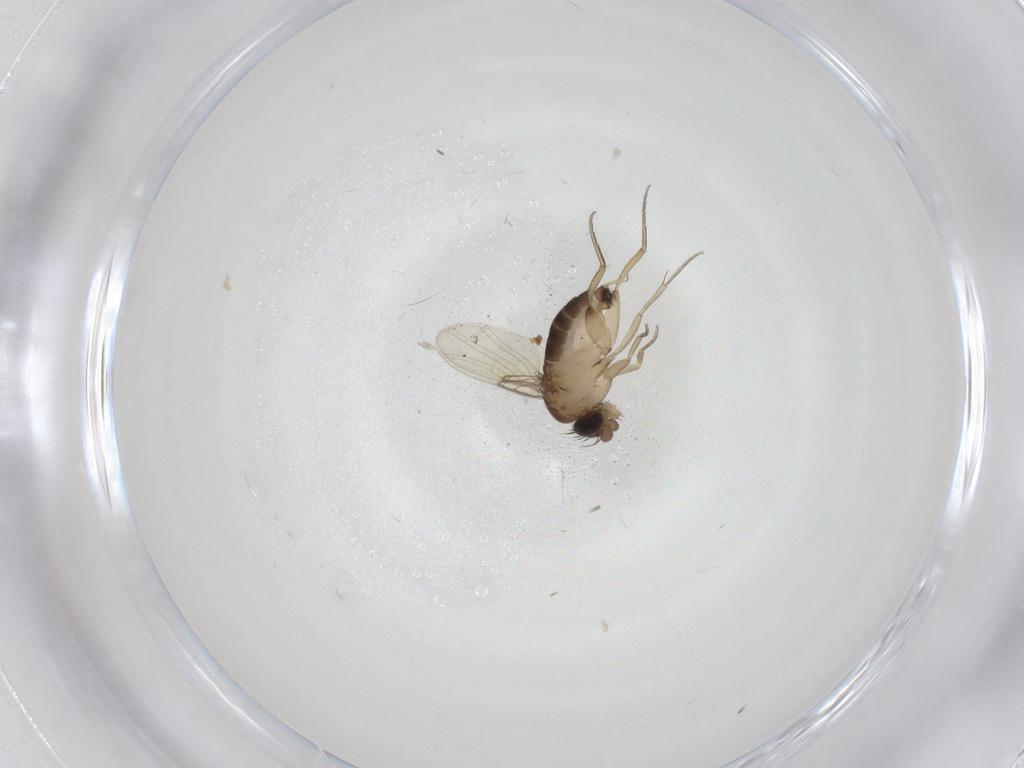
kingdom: Animalia
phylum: Arthropoda
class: Insecta
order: Diptera
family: Phoridae
